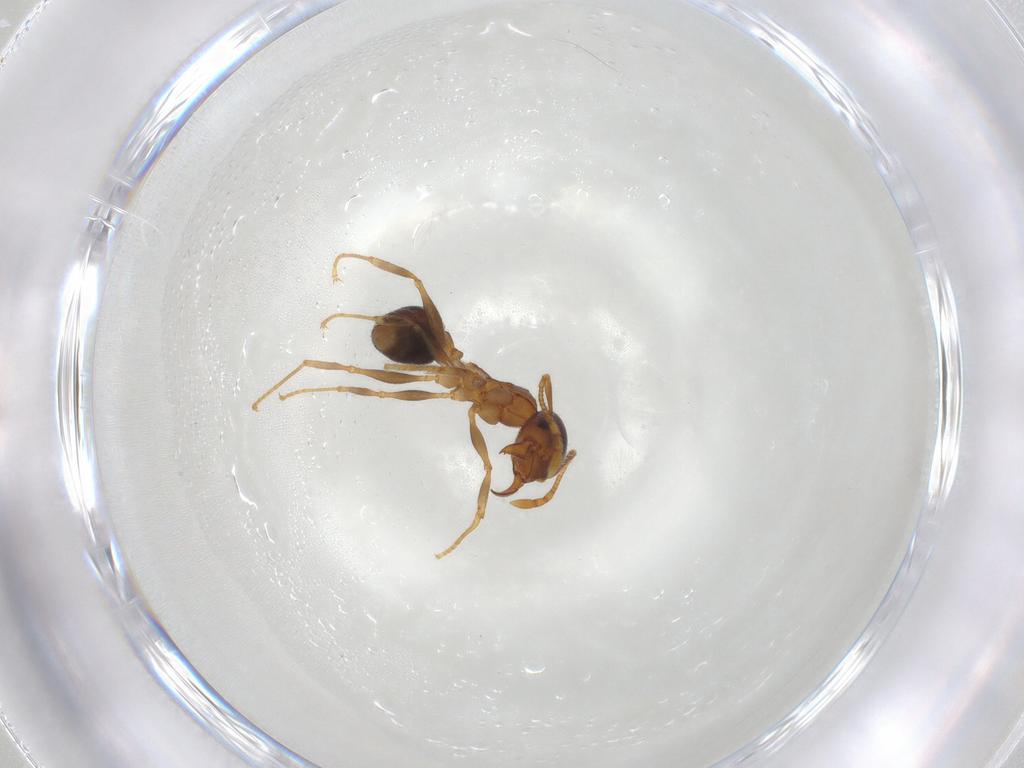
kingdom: Animalia
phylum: Arthropoda
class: Insecta
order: Hymenoptera
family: Formicidae
